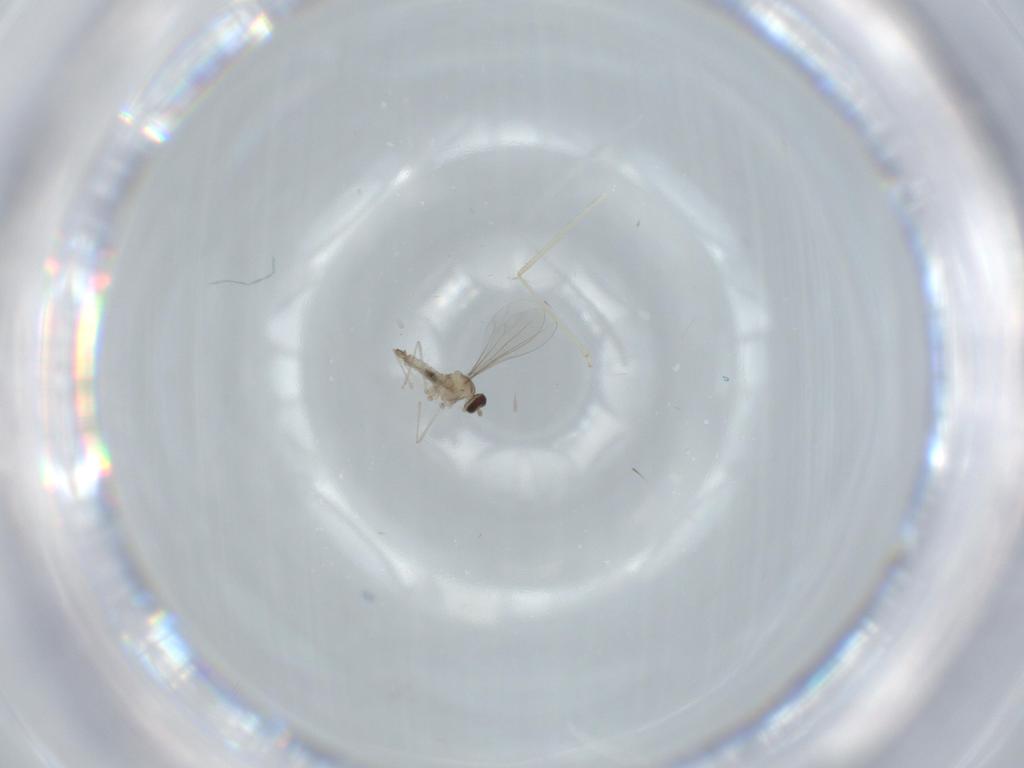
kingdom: Animalia
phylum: Arthropoda
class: Insecta
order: Diptera
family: Cecidomyiidae
